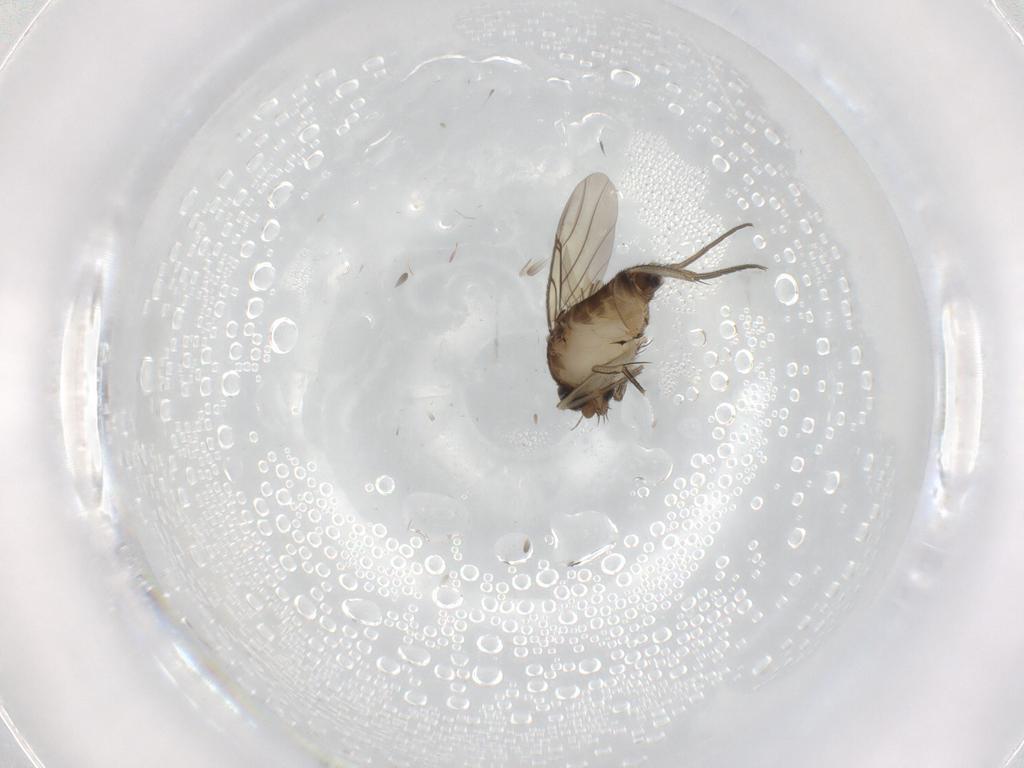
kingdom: Animalia
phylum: Arthropoda
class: Insecta
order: Diptera
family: Phoridae
